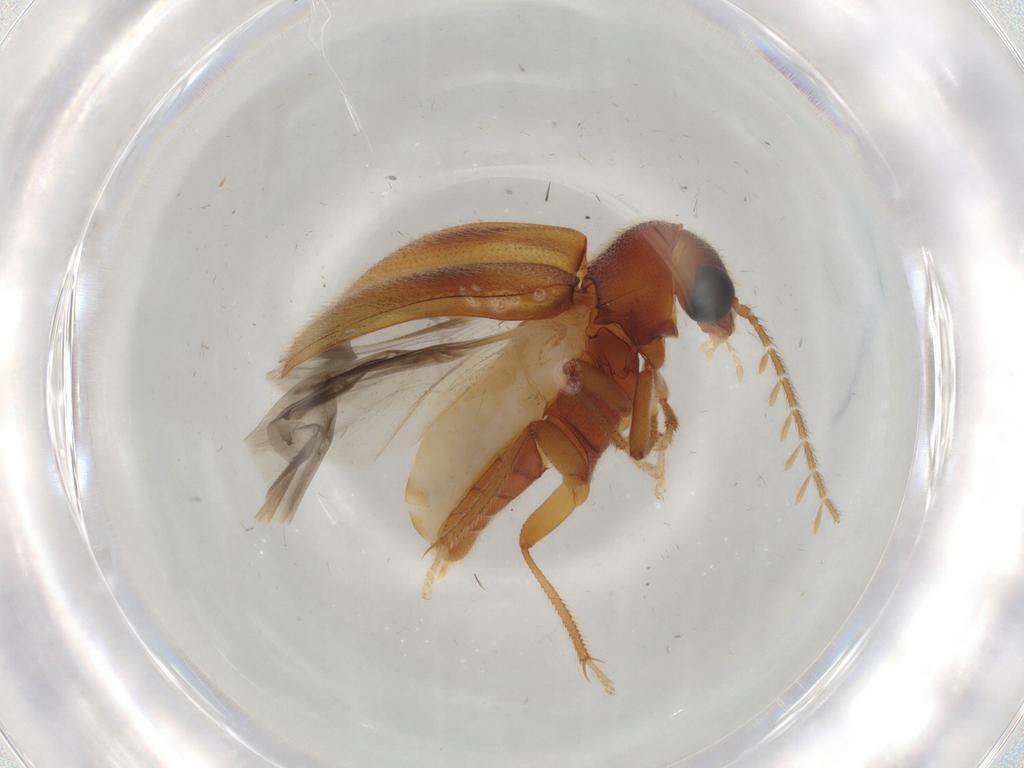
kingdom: Animalia
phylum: Arthropoda
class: Insecta
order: Coleoptera
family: Ptilodactylidae
